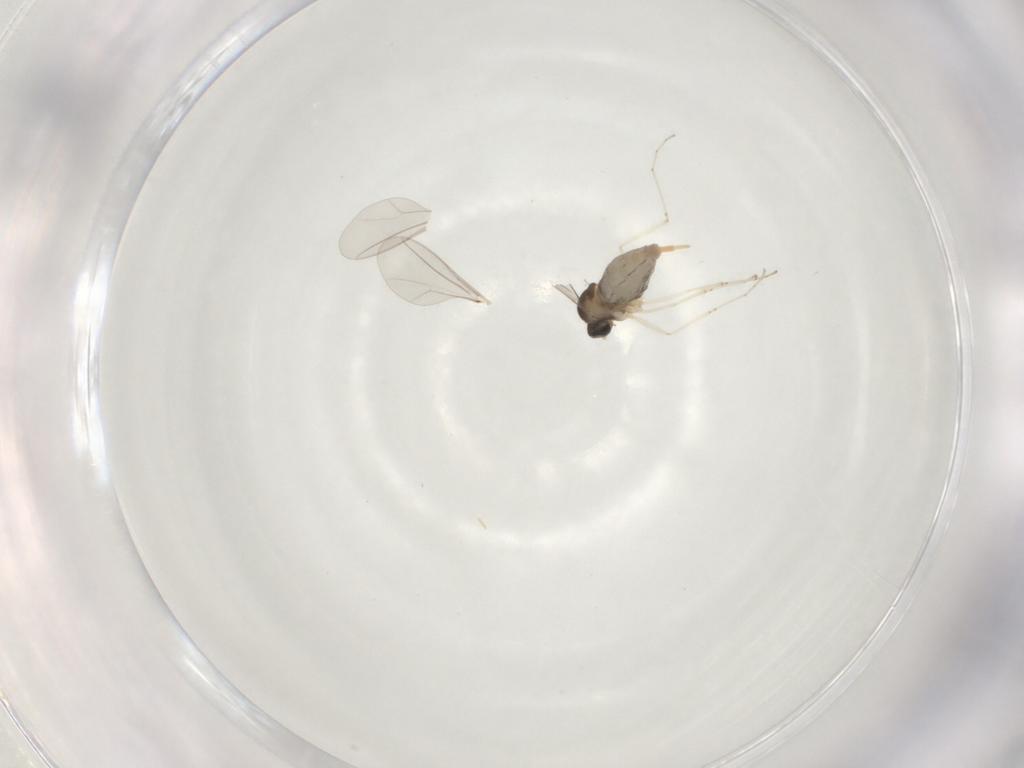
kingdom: Animalia
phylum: Arthropoda
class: Insecta
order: Diptera
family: Cecidomyiidae
